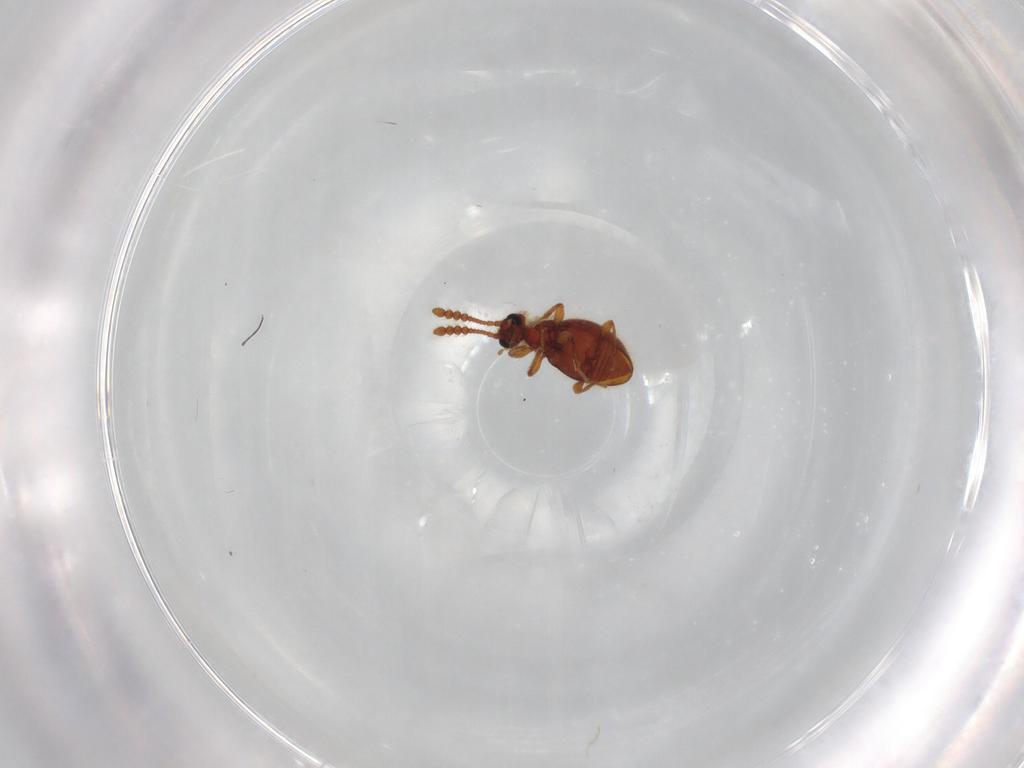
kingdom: Animalia
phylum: Arthropoda
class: Insecta
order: Coleoptera
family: Staphylinidae
